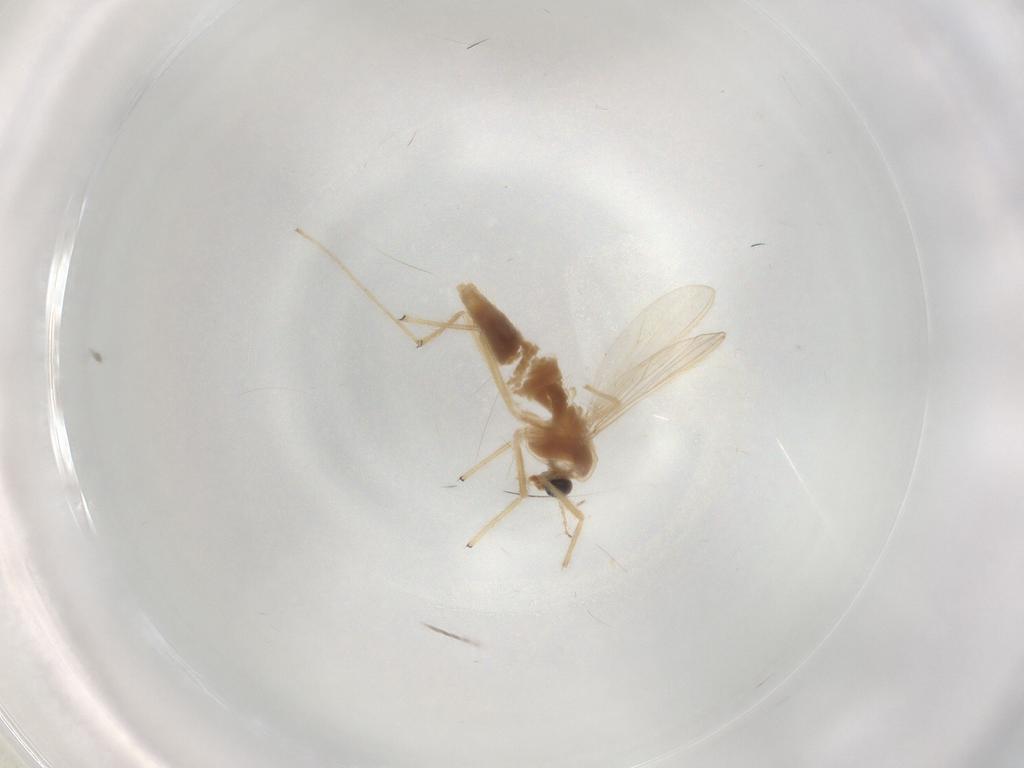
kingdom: Animalia
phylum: Arthropoda
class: Insecta
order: Diptera
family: Chironomidae
